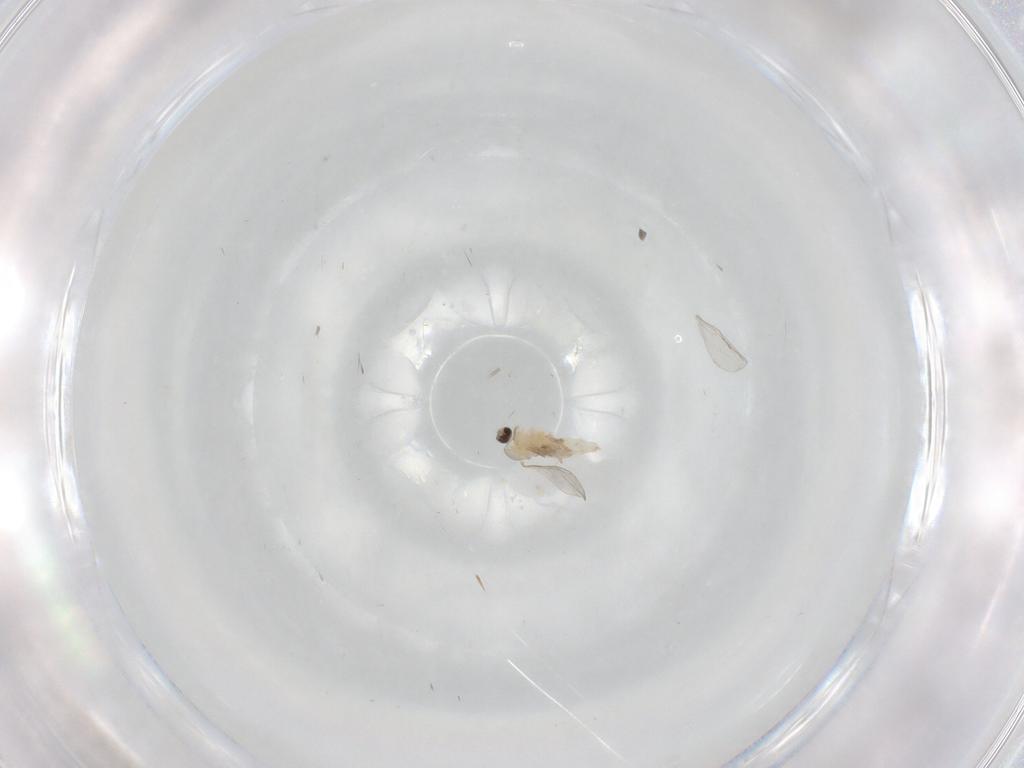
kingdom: Animalia
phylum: Arthropoda
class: Insecta
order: Diptera
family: Cecidomyiidae
